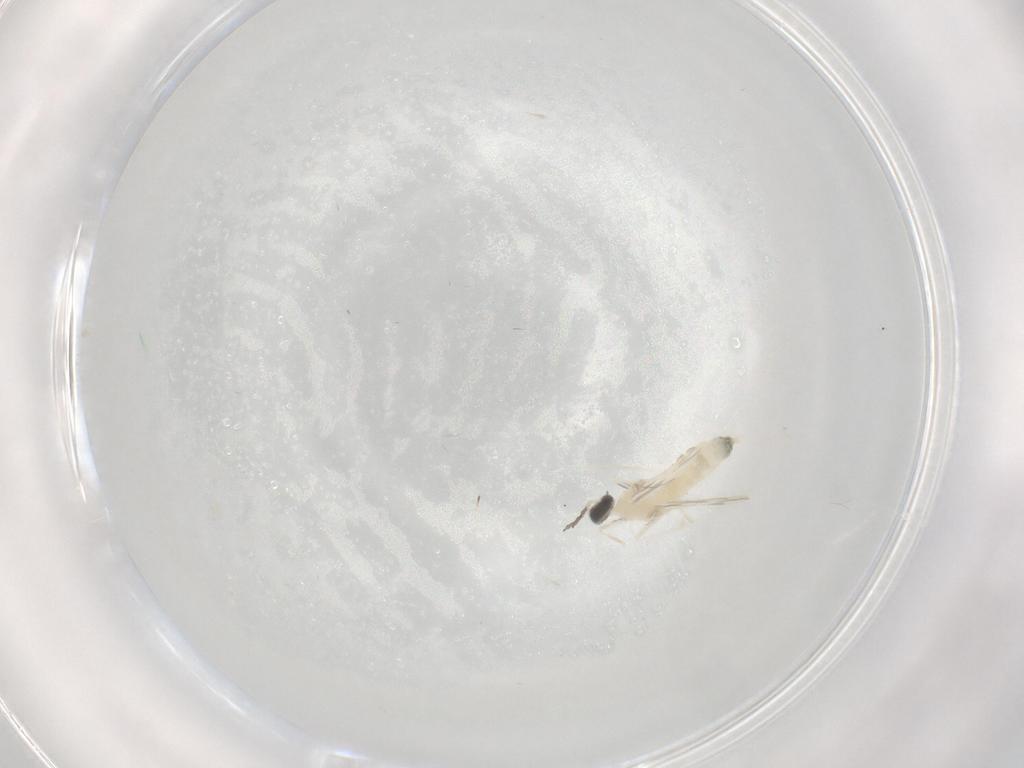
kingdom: Animalia
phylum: Arthropoda
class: Insecta
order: Diptera
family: Cecidomyiidae
